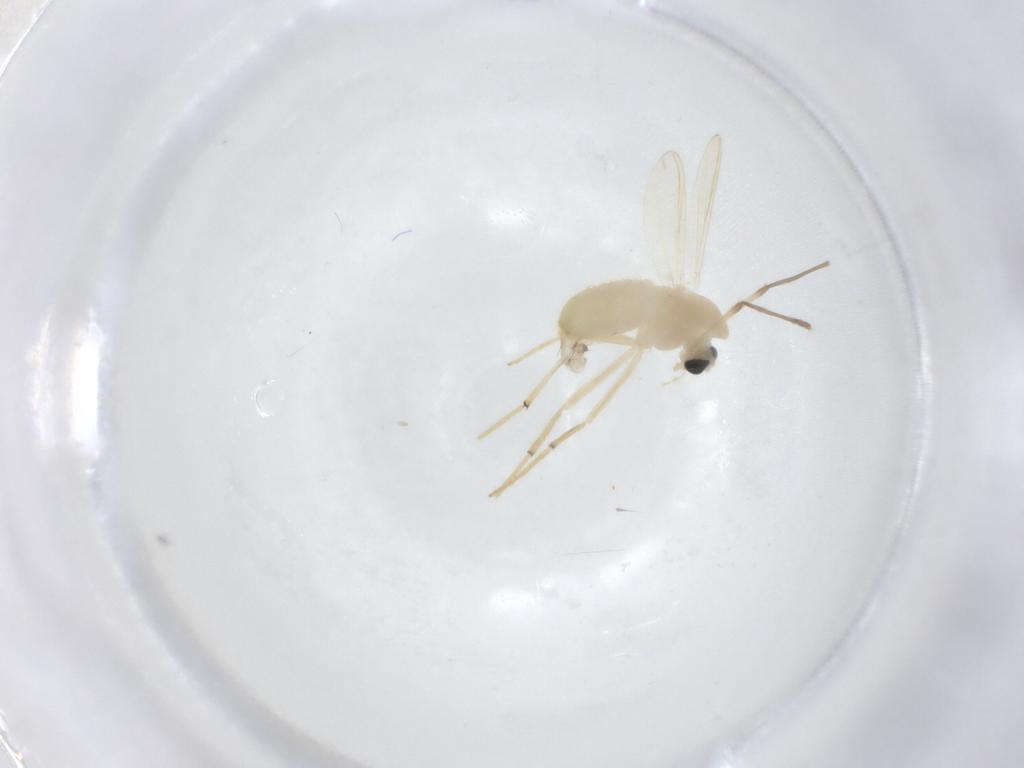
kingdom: Animalia
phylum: Arthropoda
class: Insecta
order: Diptera
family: Chironomidae
